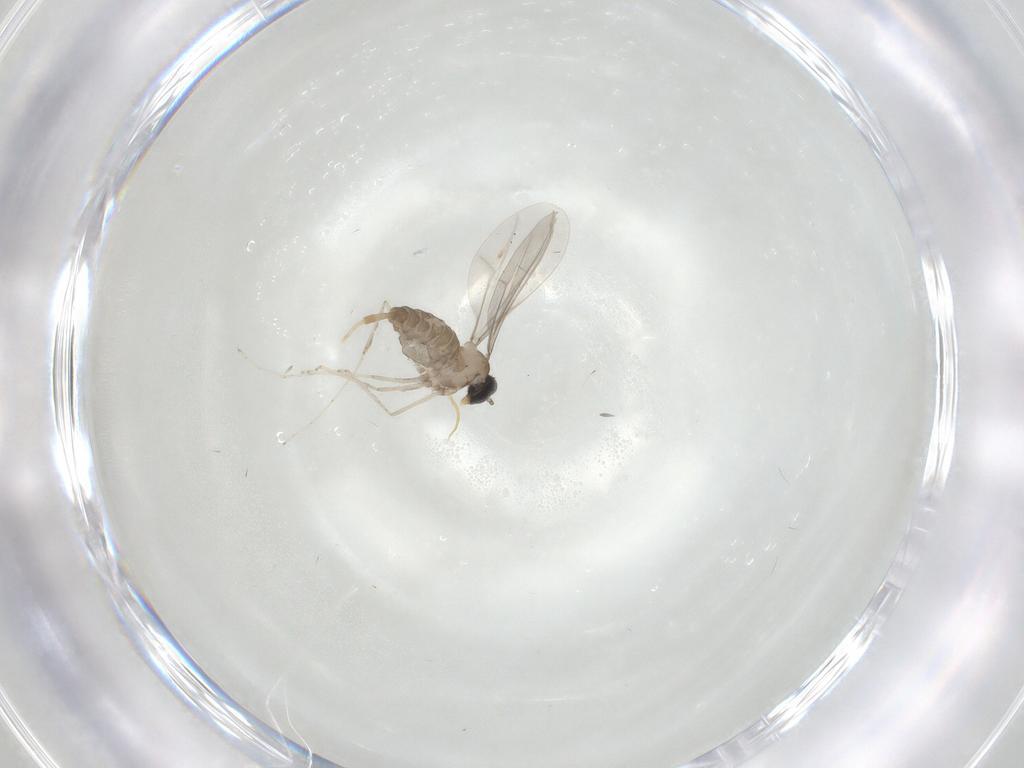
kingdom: Animalia
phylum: Arthropoda
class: Insecta
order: Diptera
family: Cecidomyiidae
